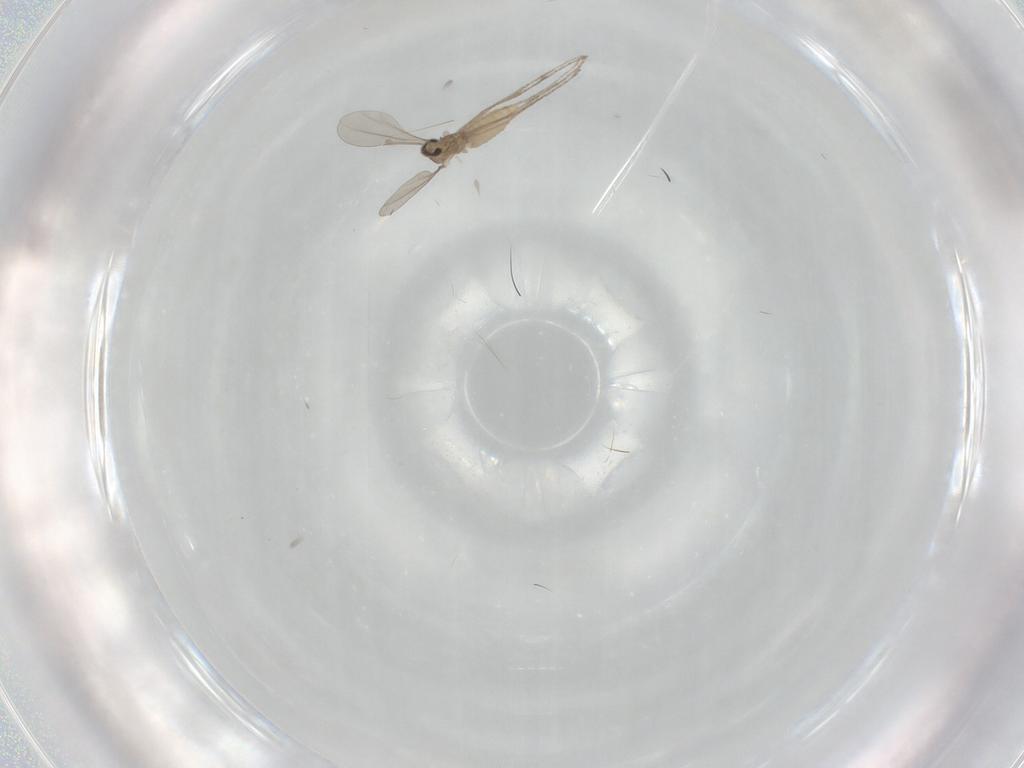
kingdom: Animalia
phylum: Arthropoda
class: Insecta
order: Diptera
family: Cecidomyiidae
